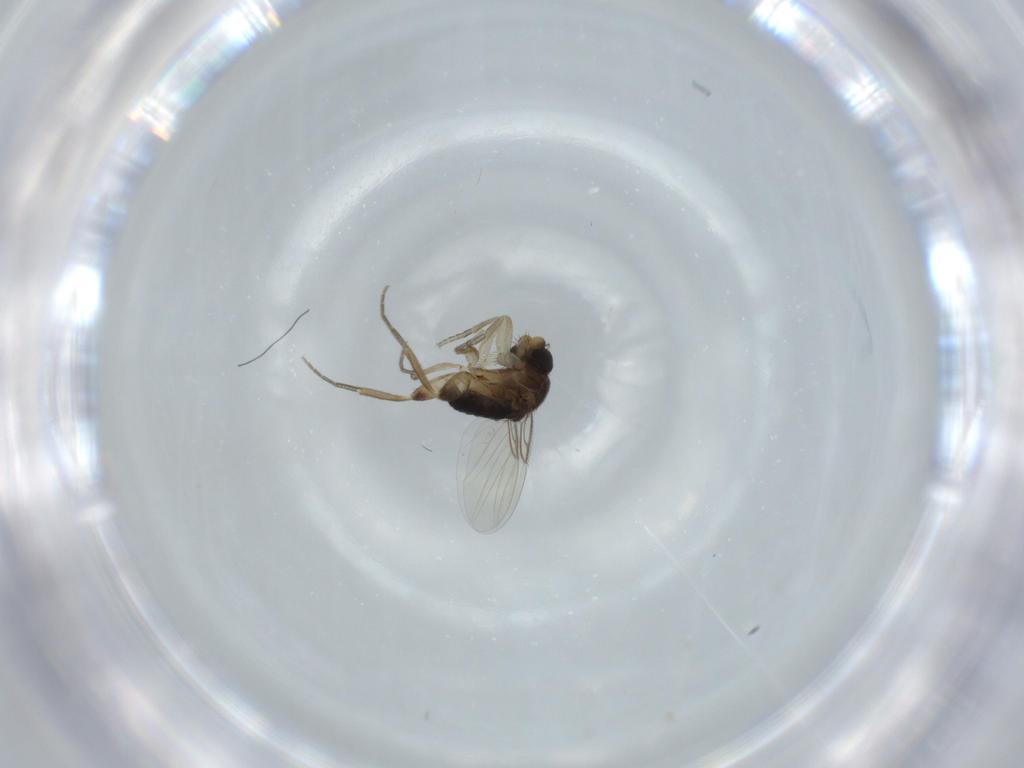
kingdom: Animalia
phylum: Arthropoda
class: Insecta
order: Diptera
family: Phoridae
